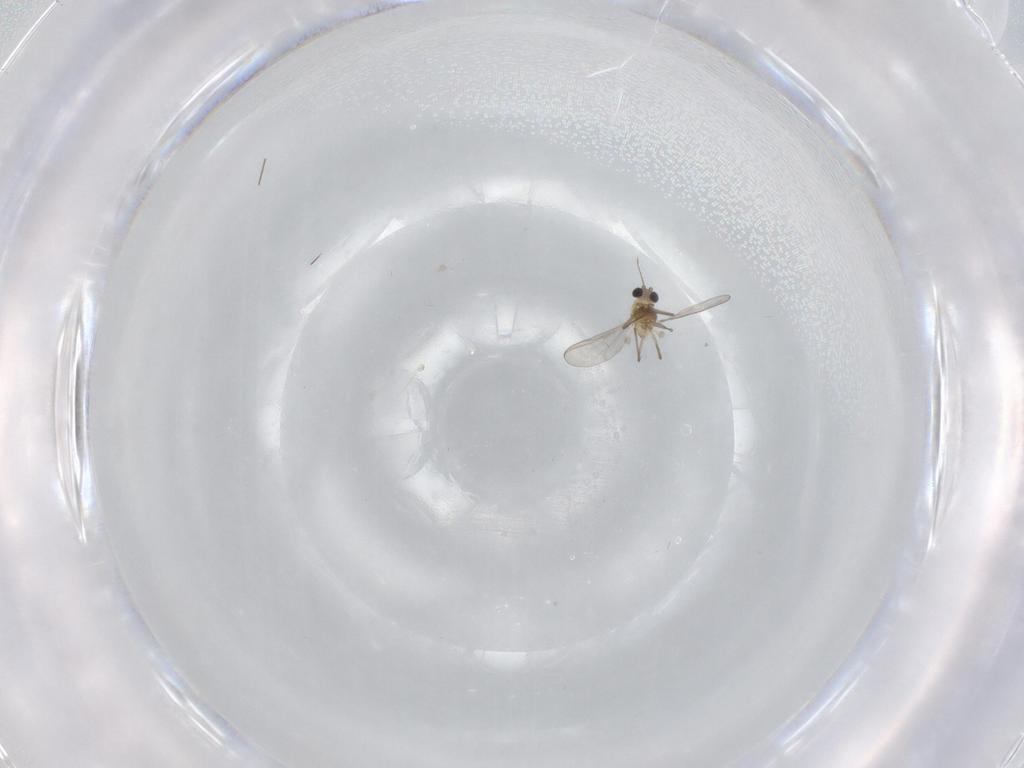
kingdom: Animalia
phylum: Arthropoda
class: Insecta
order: Diptera
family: Chironomidae
